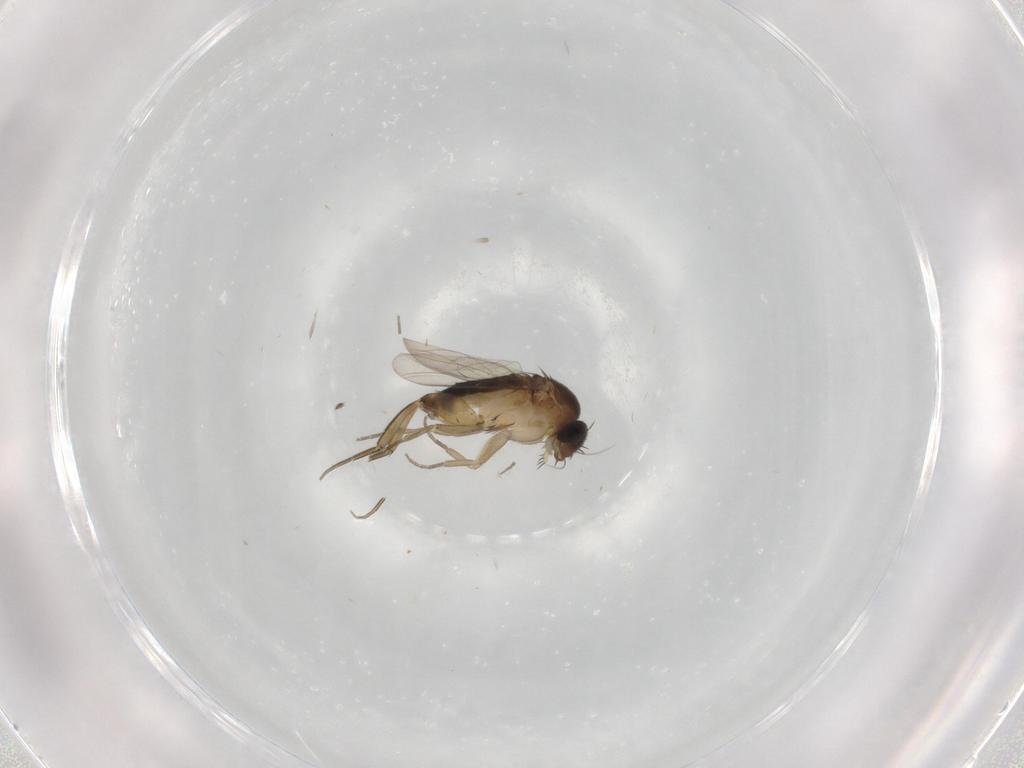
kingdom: Animalia
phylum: Arthropoda
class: Insecta
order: Diptera
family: Phoridae
